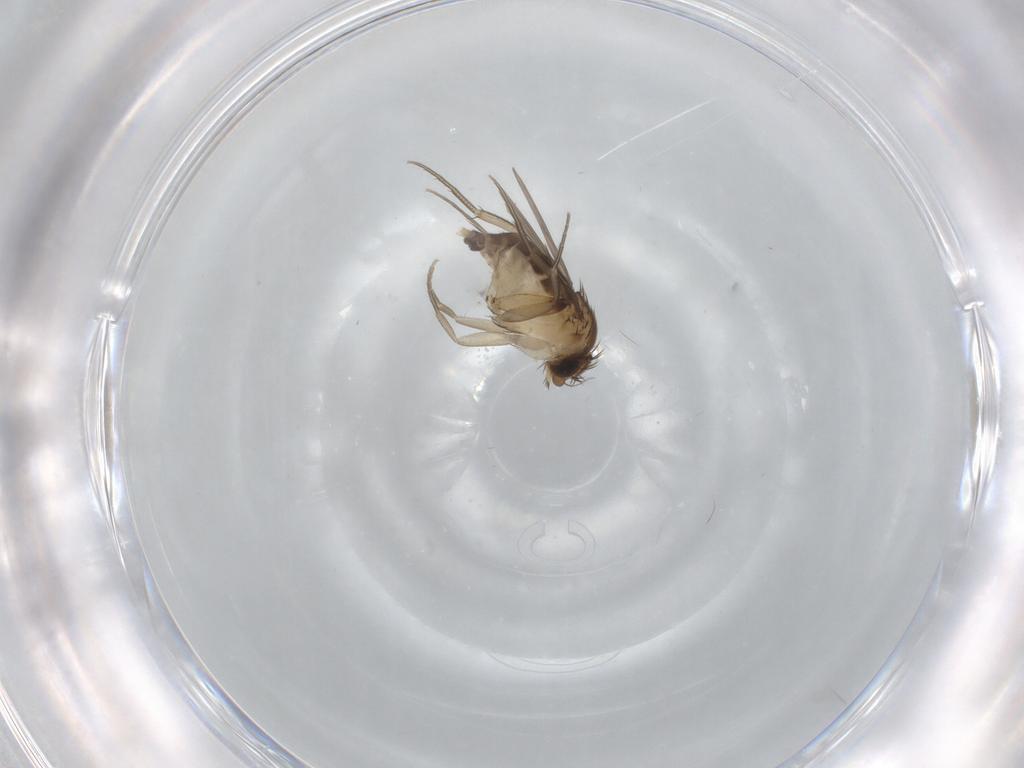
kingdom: Animalia
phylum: Arthropoda
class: Insecta
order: Diptera
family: Phoridae
